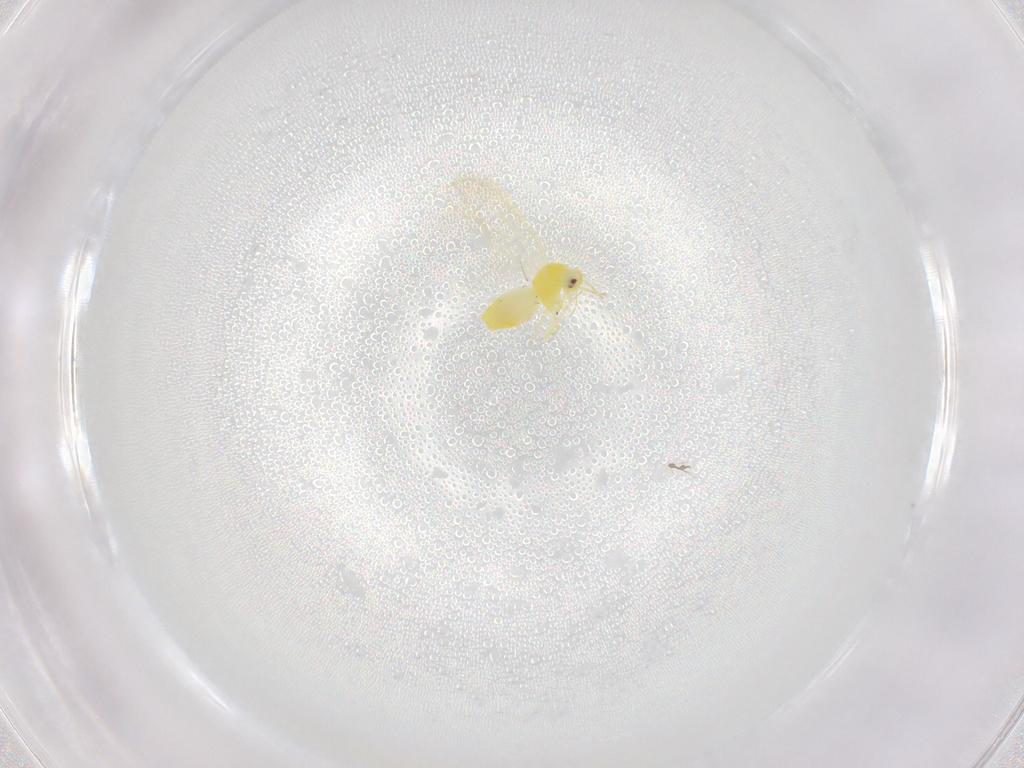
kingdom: Animalia
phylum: Arthropoda
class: Insecta
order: Hemiptera
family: Aleyrodidae
